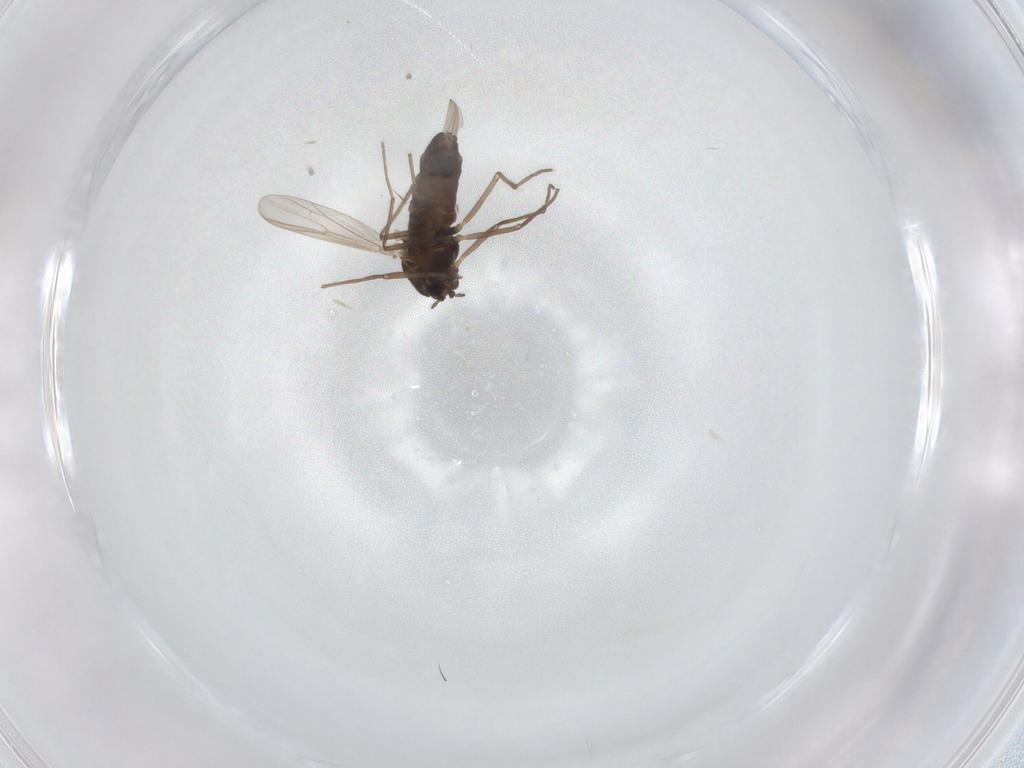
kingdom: Animalia
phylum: Arthropoda
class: Insecta
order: Diptera
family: Chironomidae
